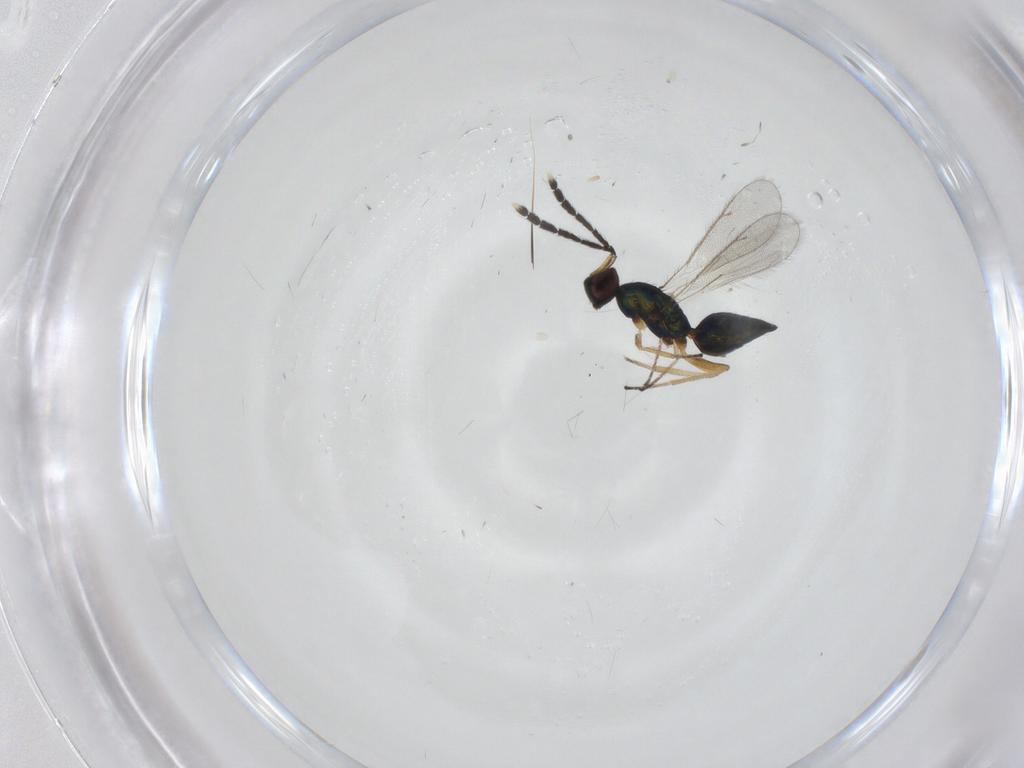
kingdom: Animalia
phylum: Arthropoda
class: Insecta
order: Hymenoptera
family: Eulophidae
